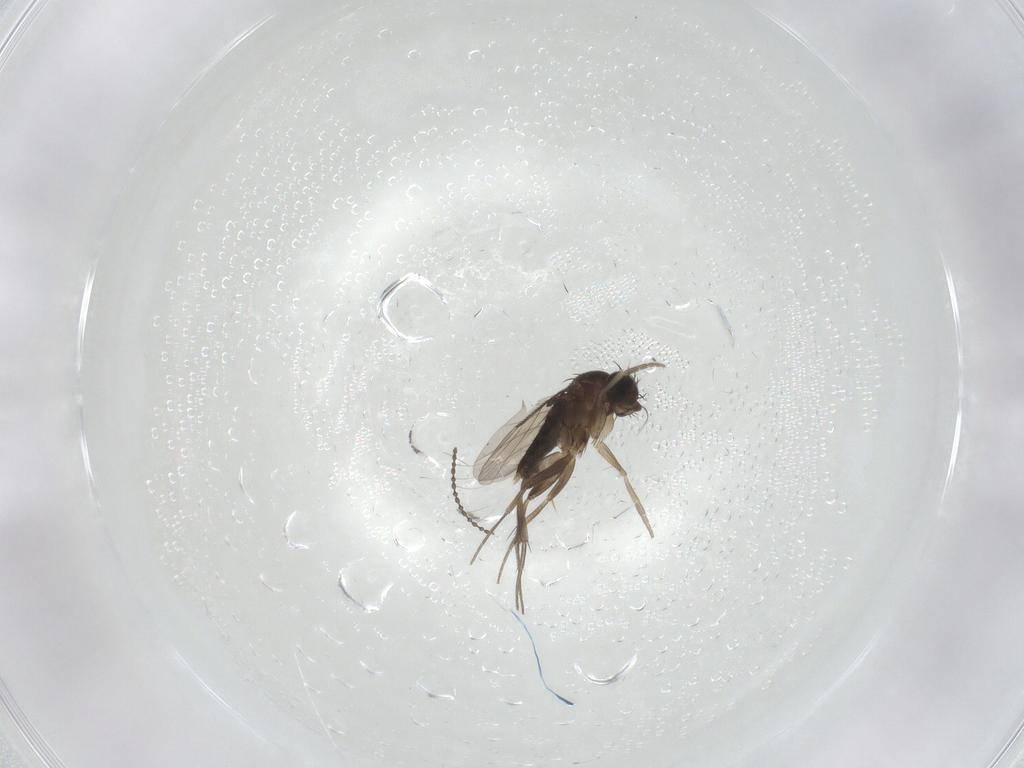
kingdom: Animalia
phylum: Arthropoda
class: Insecta
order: Diptera
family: Phoridae
